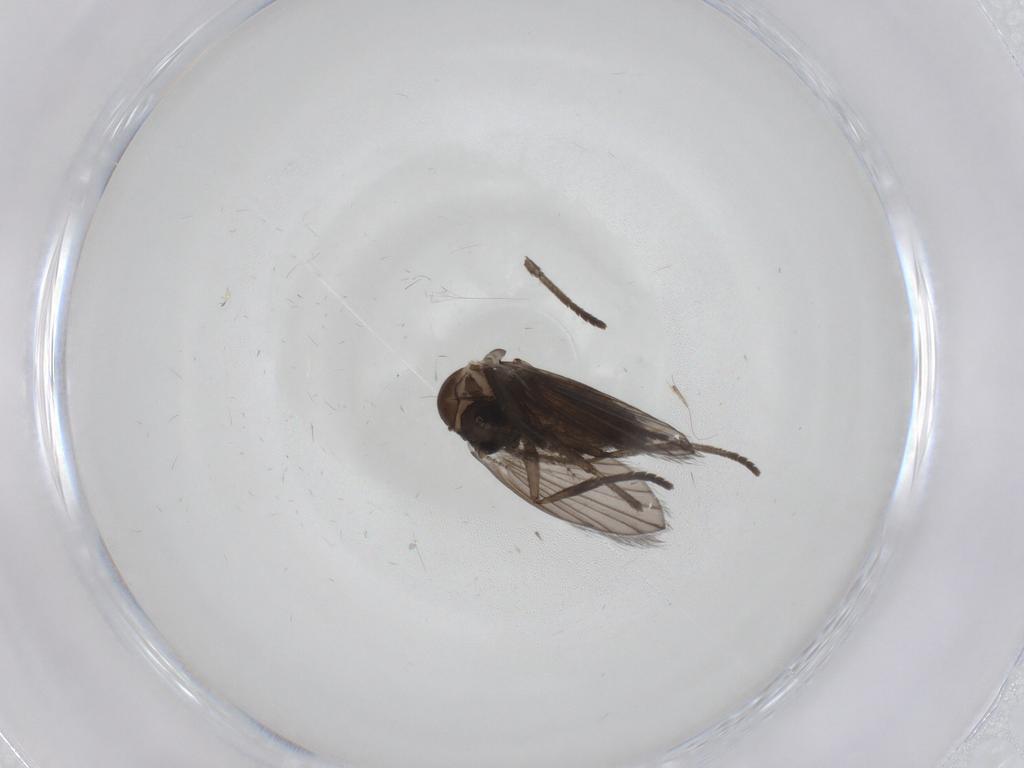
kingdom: Animalia
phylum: Arthropoda
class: Insecta
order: Diptera
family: Psychodidae
